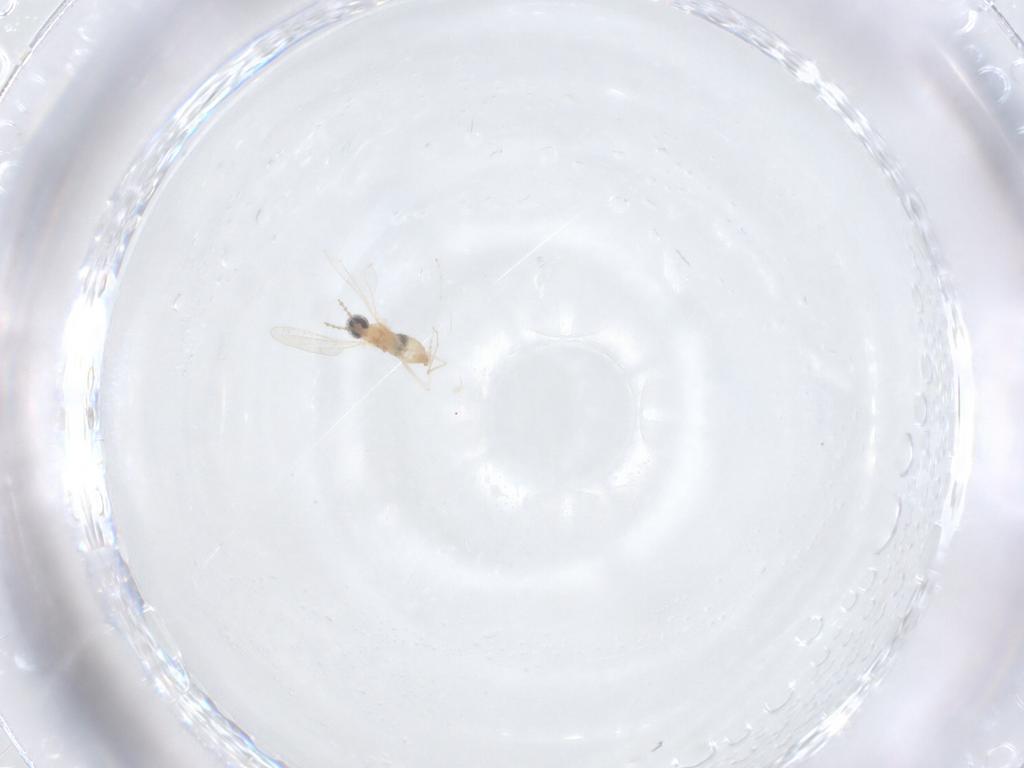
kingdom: Animalia
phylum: Arthropoda
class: Insecta
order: Diptera
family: Cecidomyiidae
